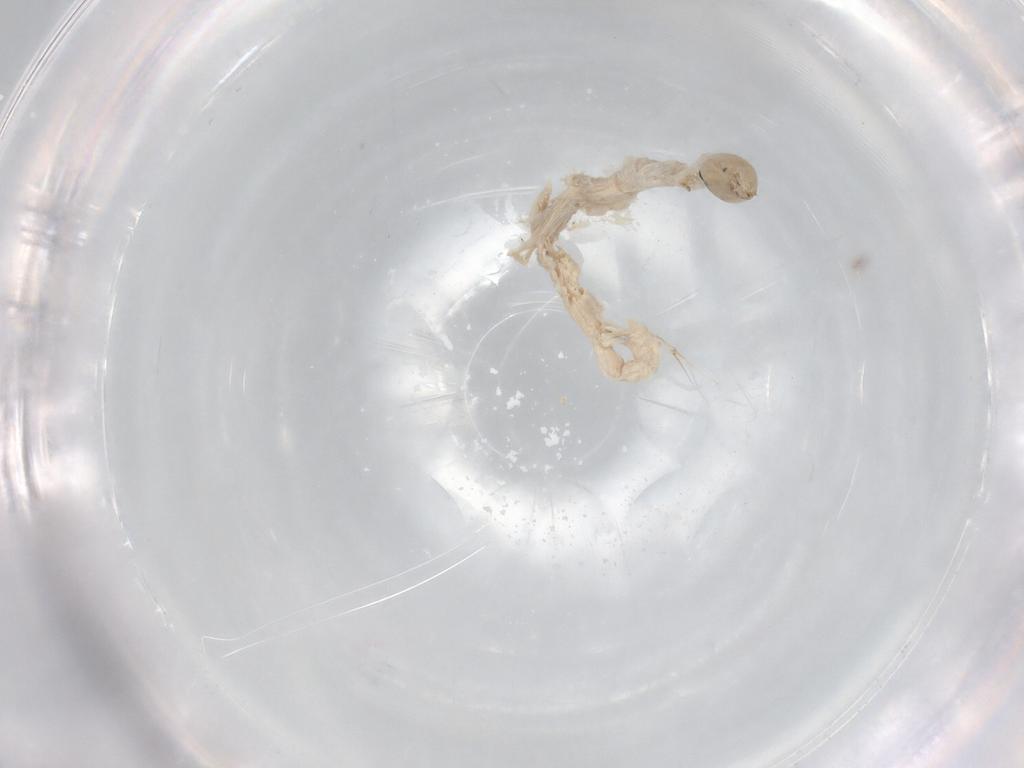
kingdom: Animalia
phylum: Arthropoda
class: Insecta
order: Diptera
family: Chironomidae
